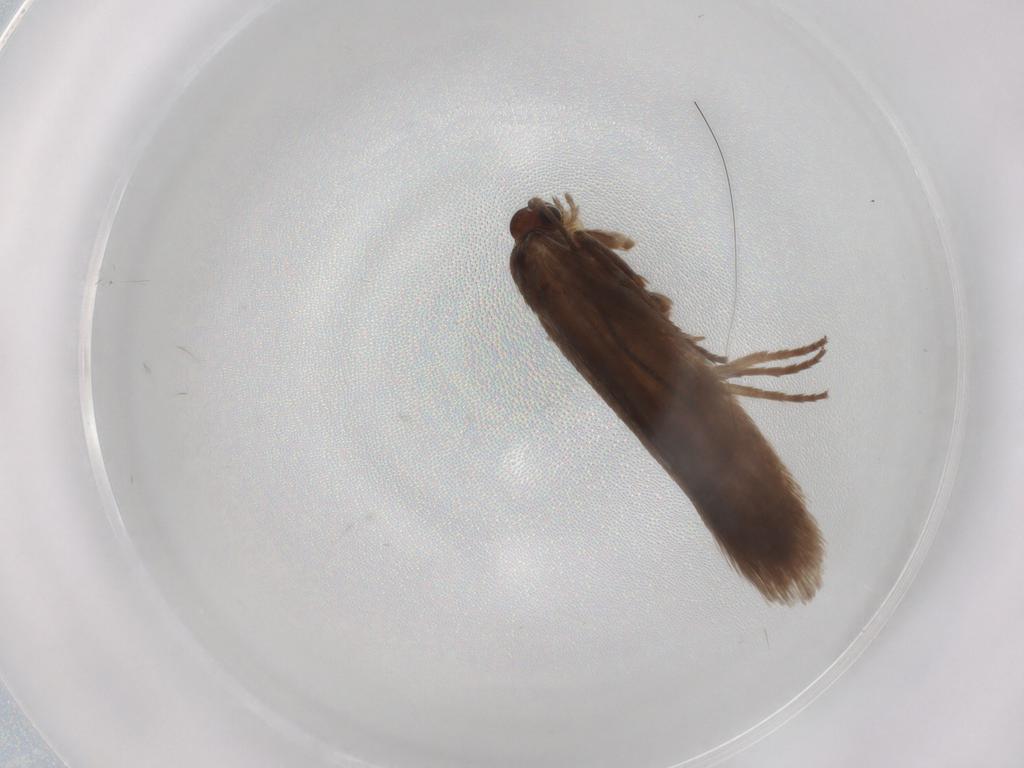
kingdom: Animalia
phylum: Arthropoda
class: Insecta
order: Lepidoptera
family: Limacodidae
